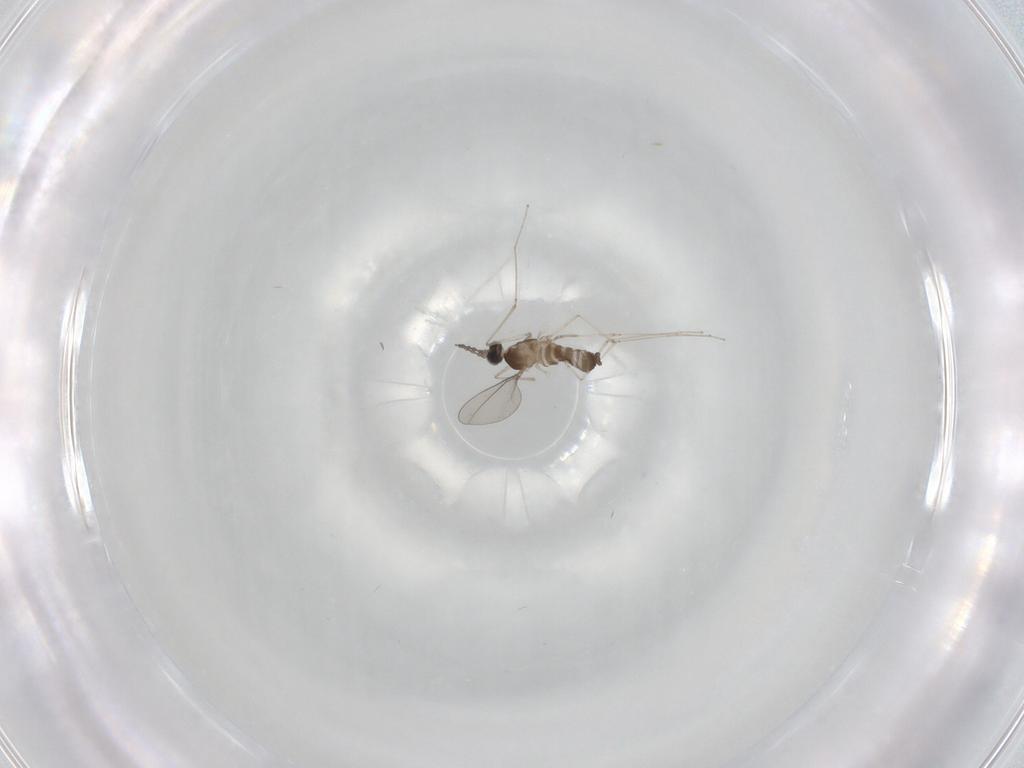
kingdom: Animalia
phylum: Arthropoda
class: Insecta
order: Diptera
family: Cecidomyiidae
